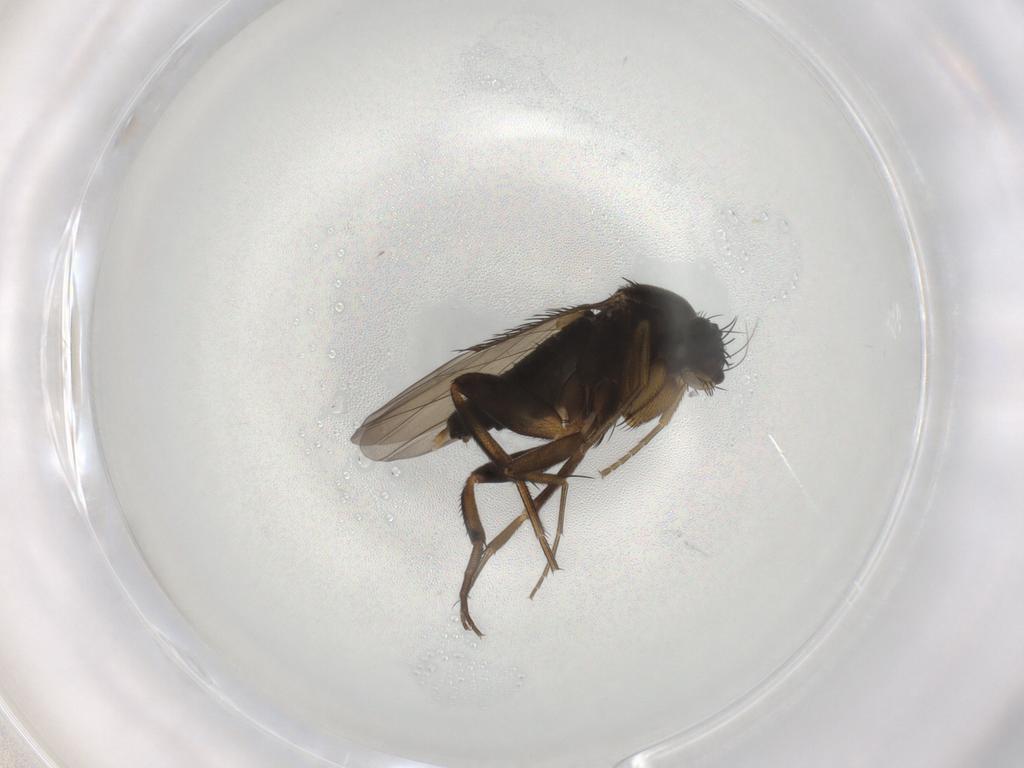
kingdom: Animalia
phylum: Arthropoda
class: Insecta
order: Diptera
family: Phoridae
